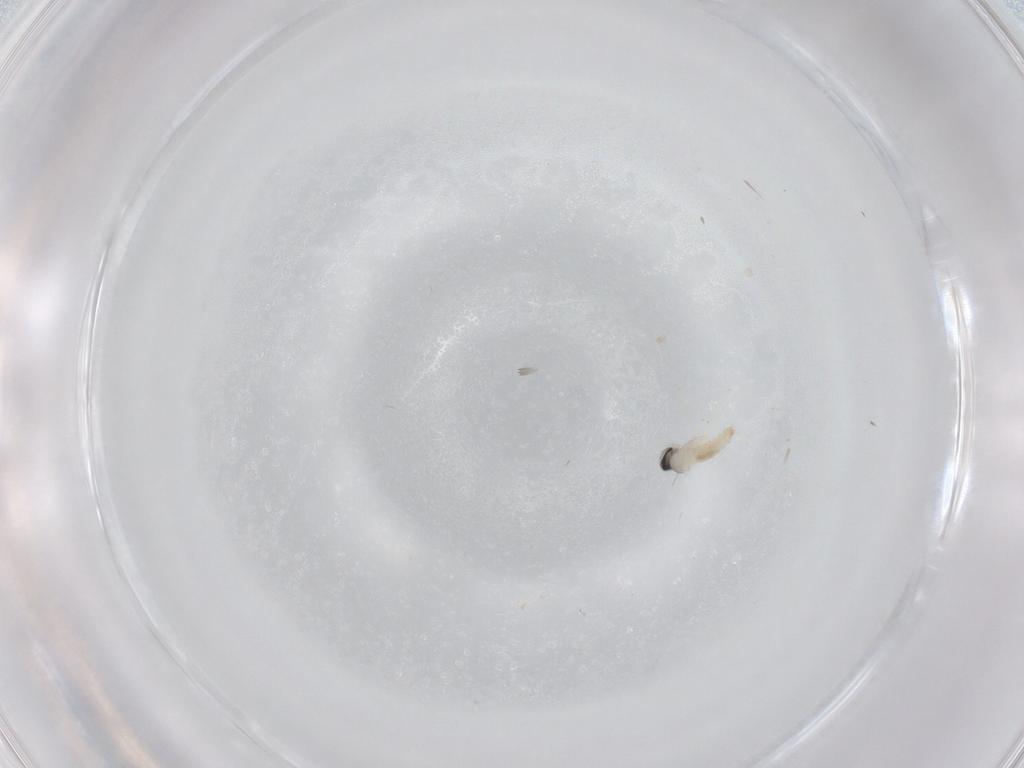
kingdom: Animalia
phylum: Arthropoda
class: Insecta
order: Diptera
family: Cecidomyiidae
